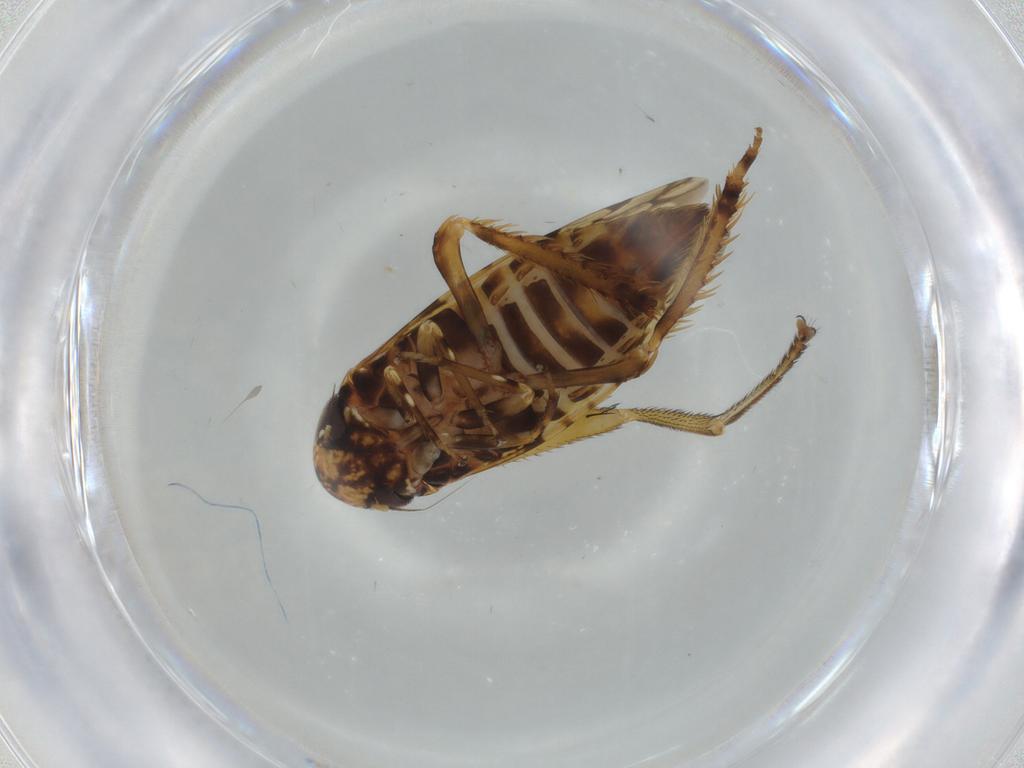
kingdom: Animalia
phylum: Arthropoda
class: Insecta
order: Hemiptera
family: Cicadellidae
